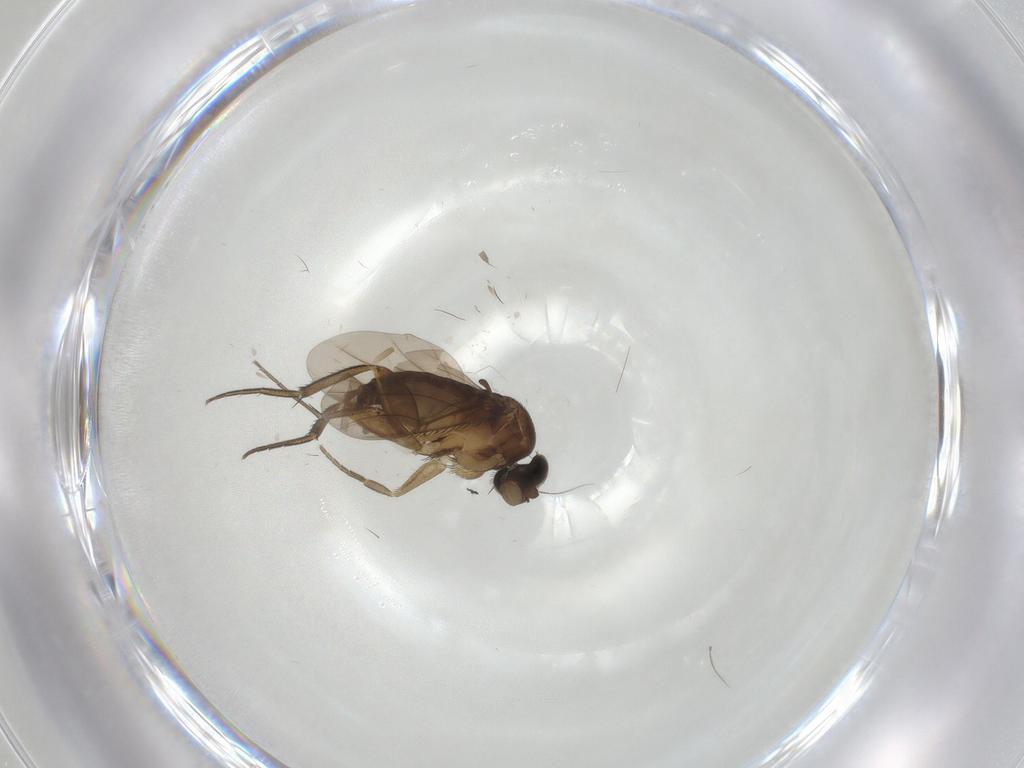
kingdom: Animalia
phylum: Arthropoda
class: Insecta
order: Diptera
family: Phoridae
